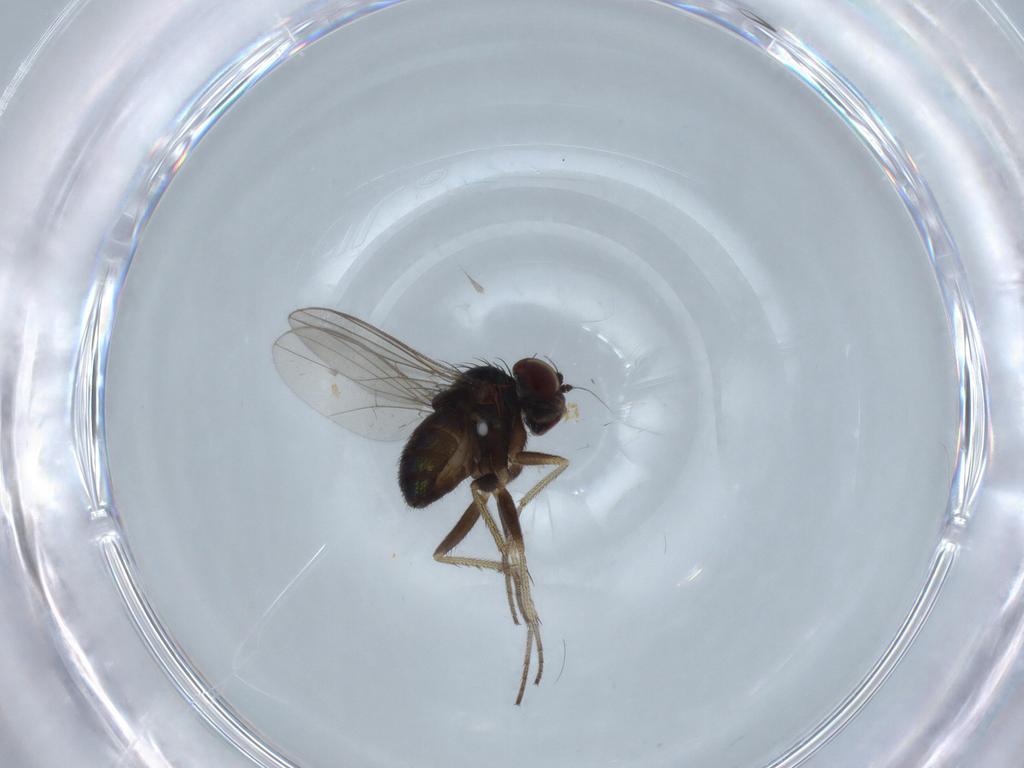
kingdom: Animalia
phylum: Arthropoda
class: Insecta
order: Diptera
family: Dolichopodidae
